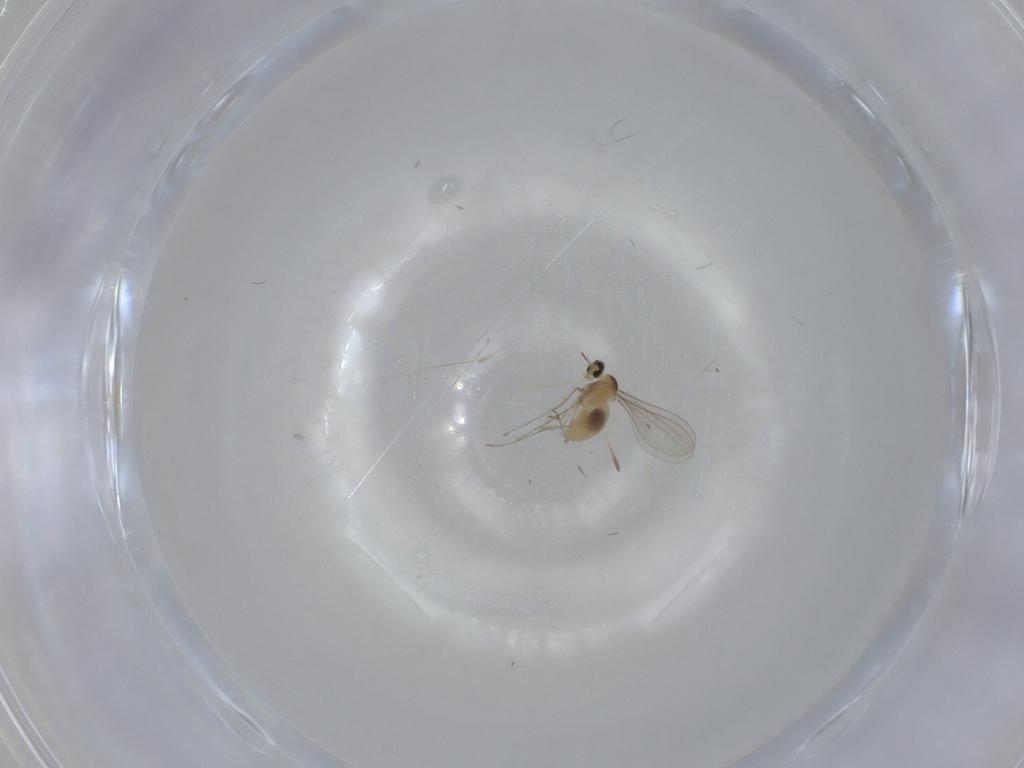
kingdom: Animalia
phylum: Arthropoda
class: Insecta
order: Diptera
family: Cecidomyiidae
